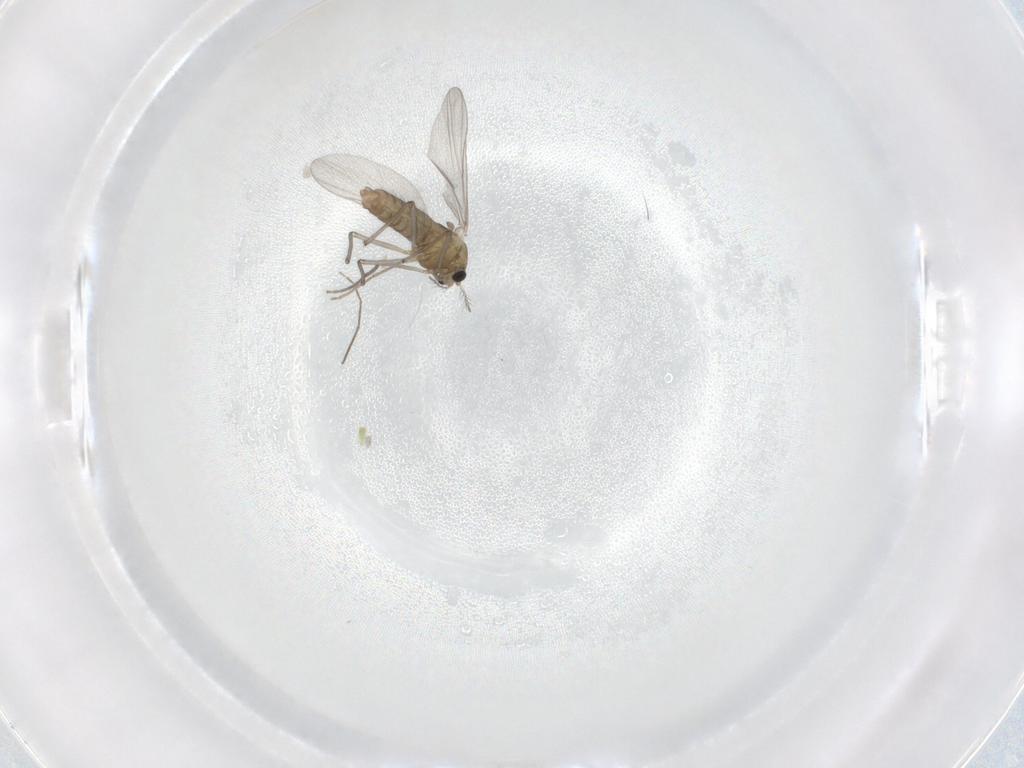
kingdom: Animalia
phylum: Arthropoda
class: Insecta
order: Diptera
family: Chironomidae
